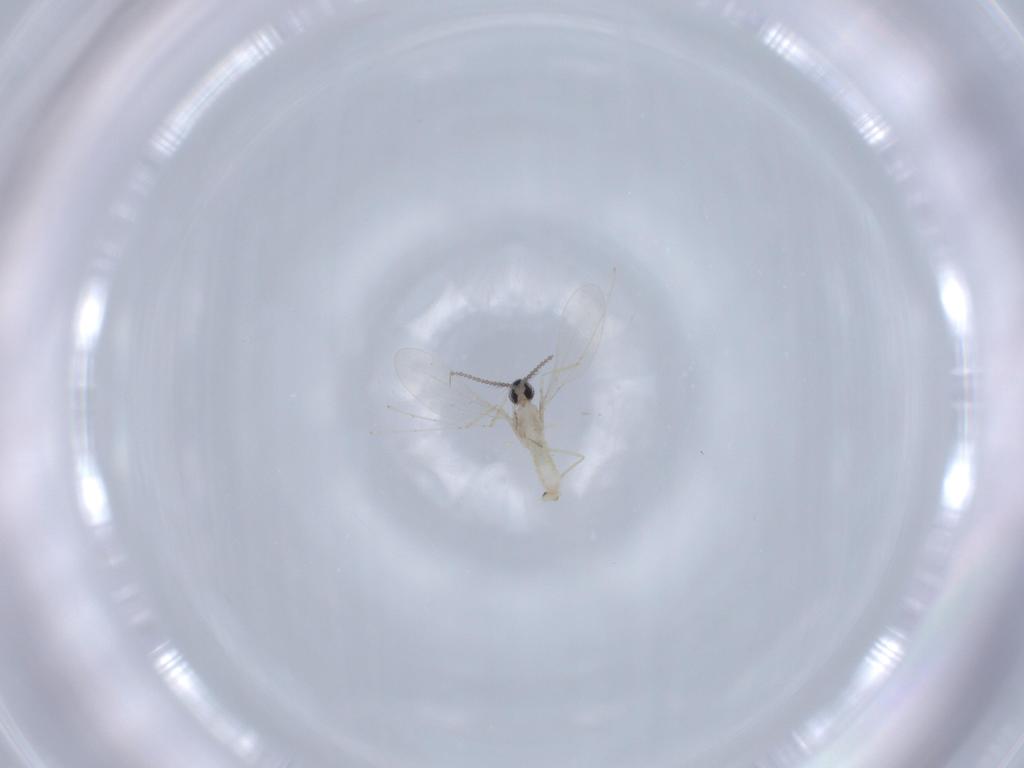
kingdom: Animalia
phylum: Arthropoda
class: Insecta
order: Diptera
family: Cecidomyiidae
